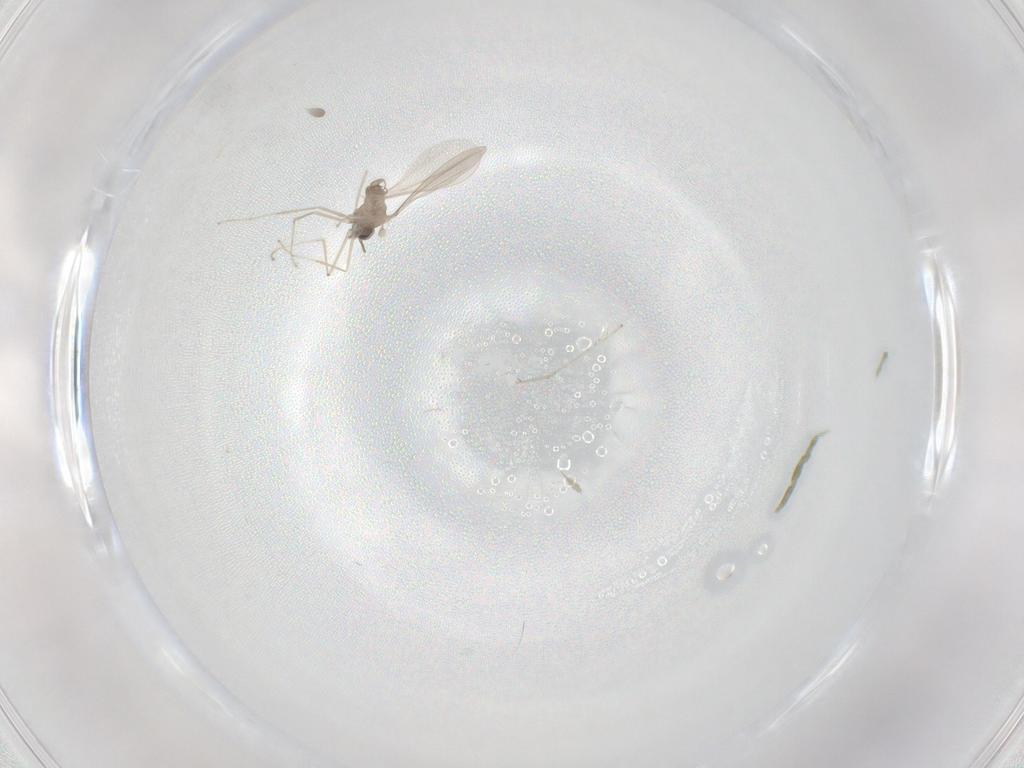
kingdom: Animalia
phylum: Arthropoda
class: Insecta
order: Diptera
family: Cecidomyiidae
